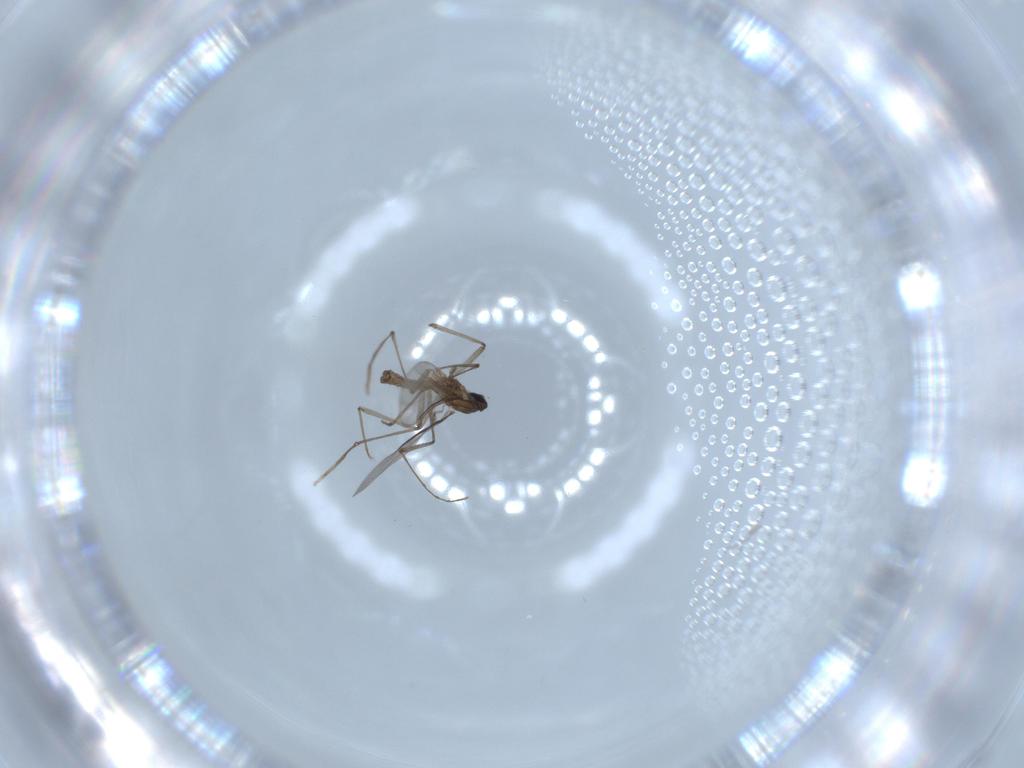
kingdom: Animalia
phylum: Arthropoda
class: Insecta
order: Diptera
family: Cecidomyiidae
